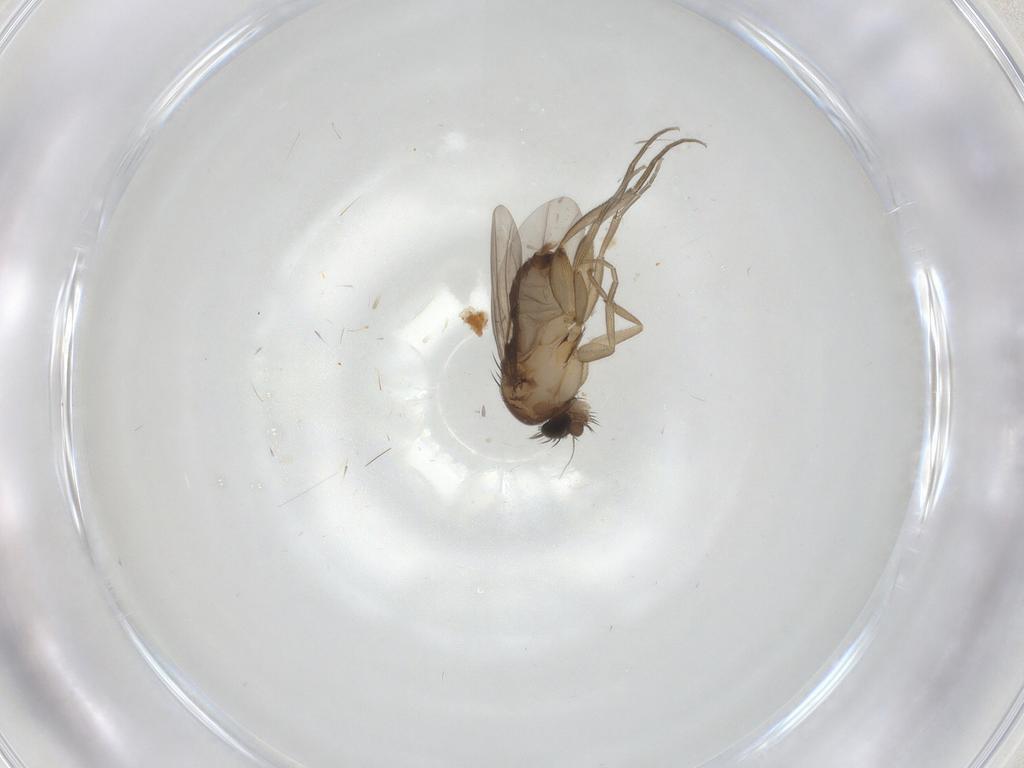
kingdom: Animalia
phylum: Arthropoda
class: Insecta
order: Diptera
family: Phoridae
